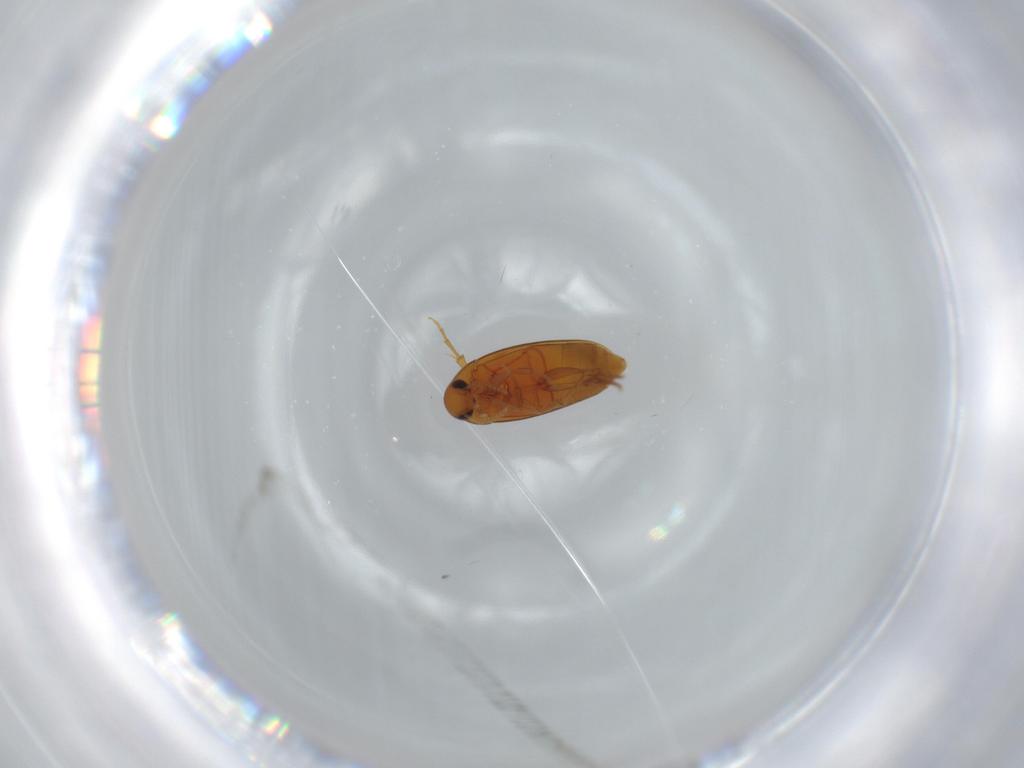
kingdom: Animalia
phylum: Arthropoda
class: Insecta
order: Coleoptera
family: Scraptiidae
